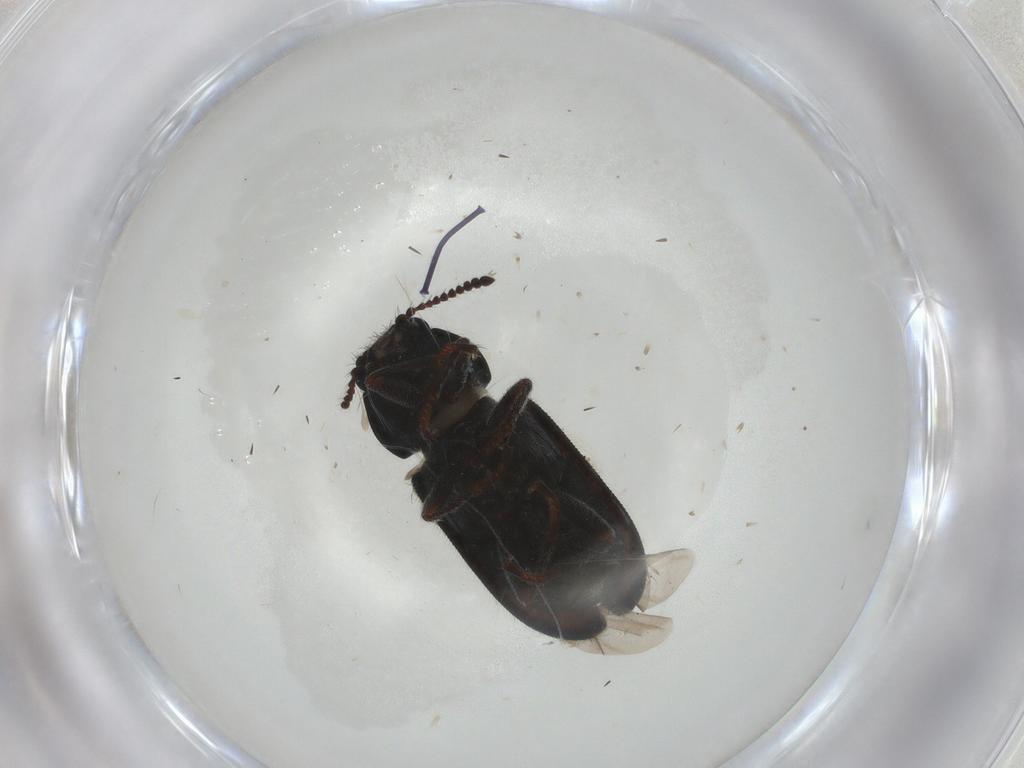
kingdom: Animalia
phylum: Arthropoda
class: Insecta
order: Coleoptera
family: Melyridae
